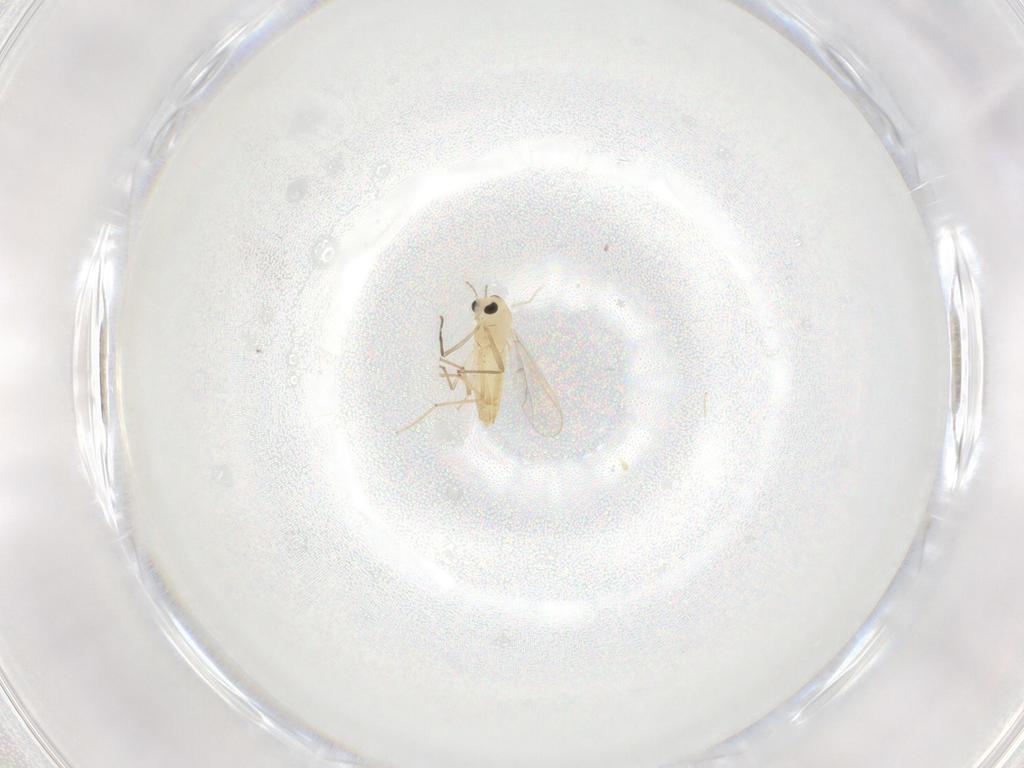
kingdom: Animalia
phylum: Arthropoda
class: Insecta
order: Diptera
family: Chironomidae
